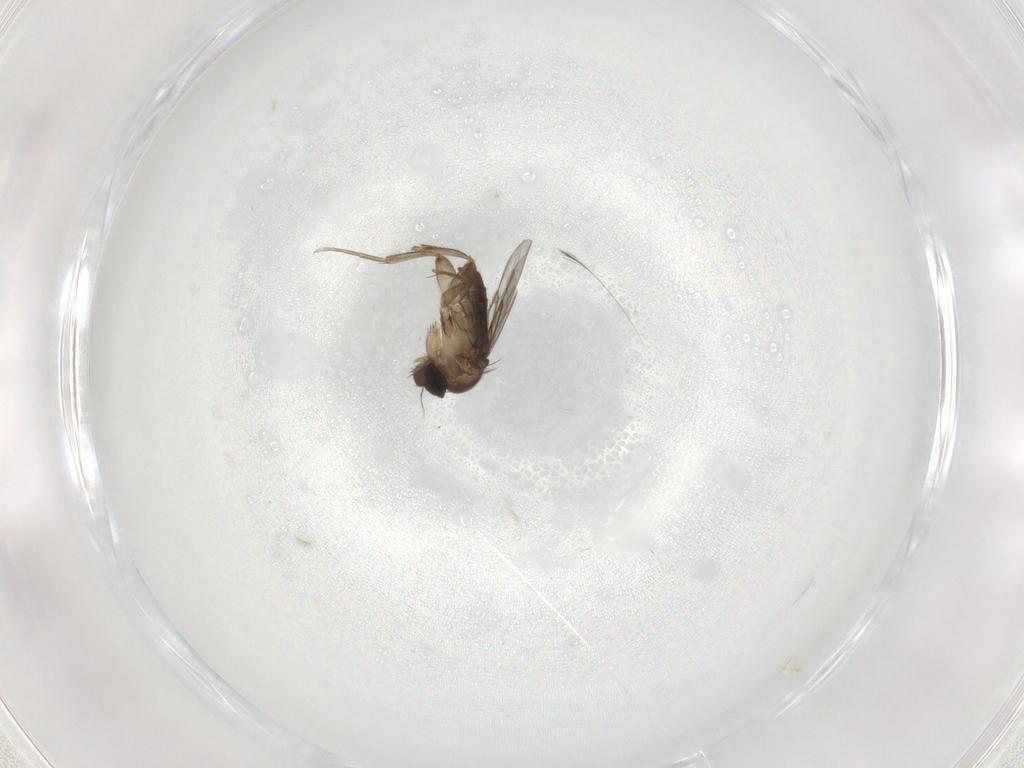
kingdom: Animalia
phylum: Arthropoda
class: Insecta
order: Diptera
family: Phoridae
